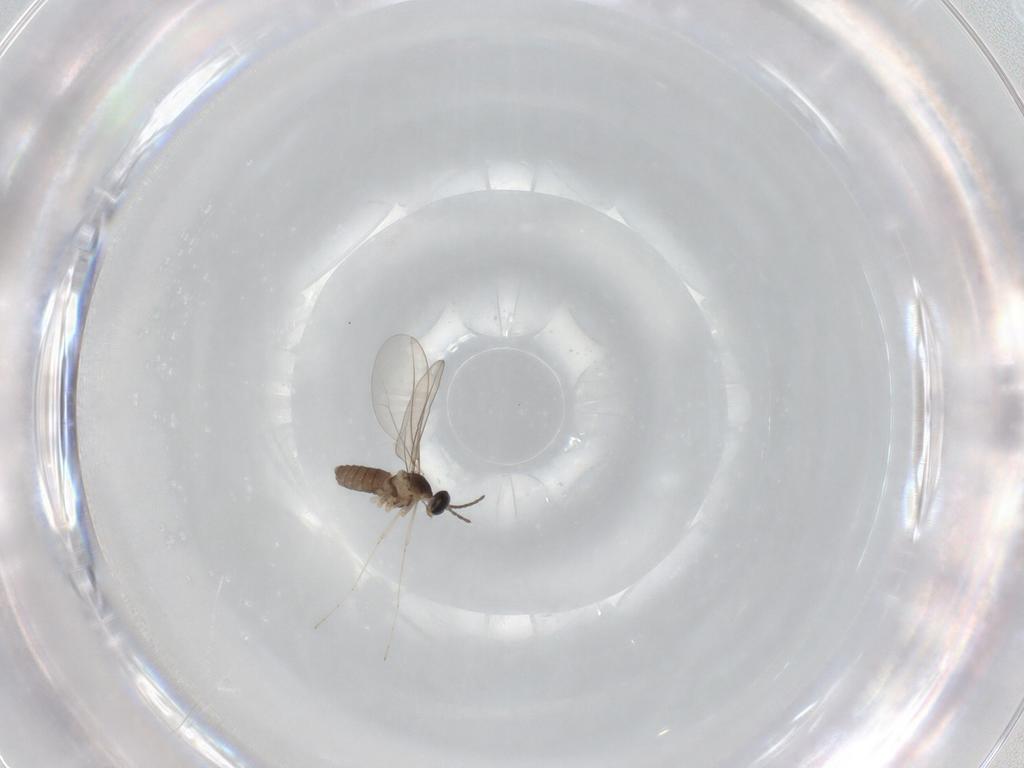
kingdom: Animalia
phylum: Arthropoda
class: Insecta
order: Diptera
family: Cecidomyiidae
